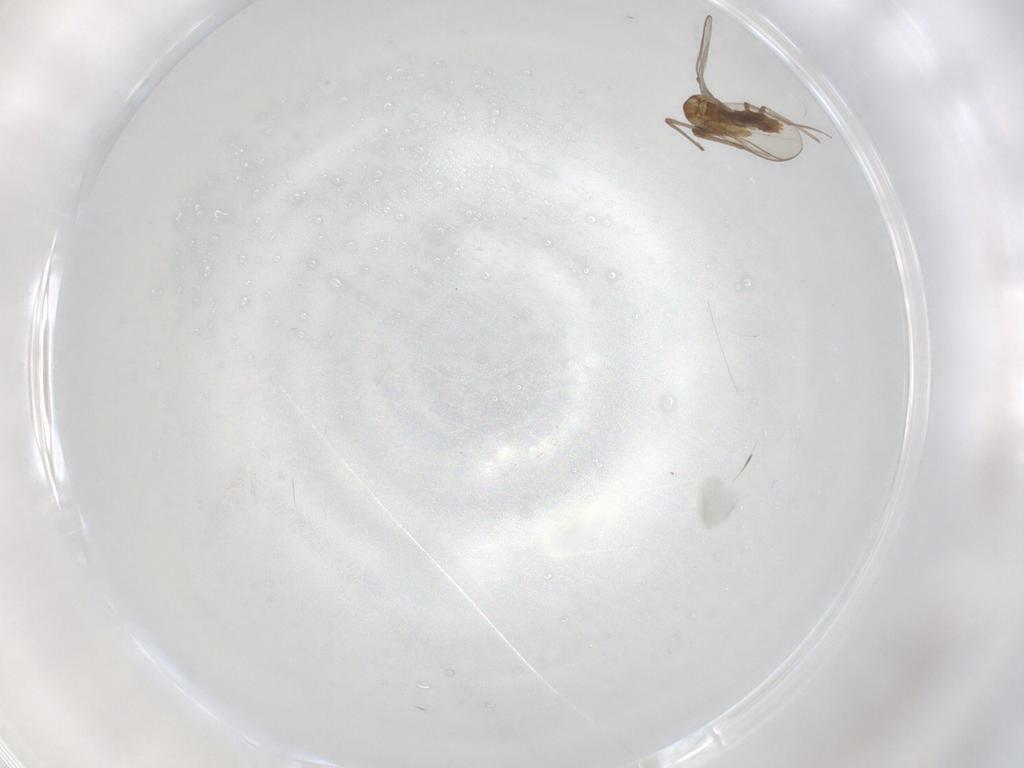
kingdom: Animalia
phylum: Arthropoda
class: Insecta
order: Diptera
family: Chironomidae
